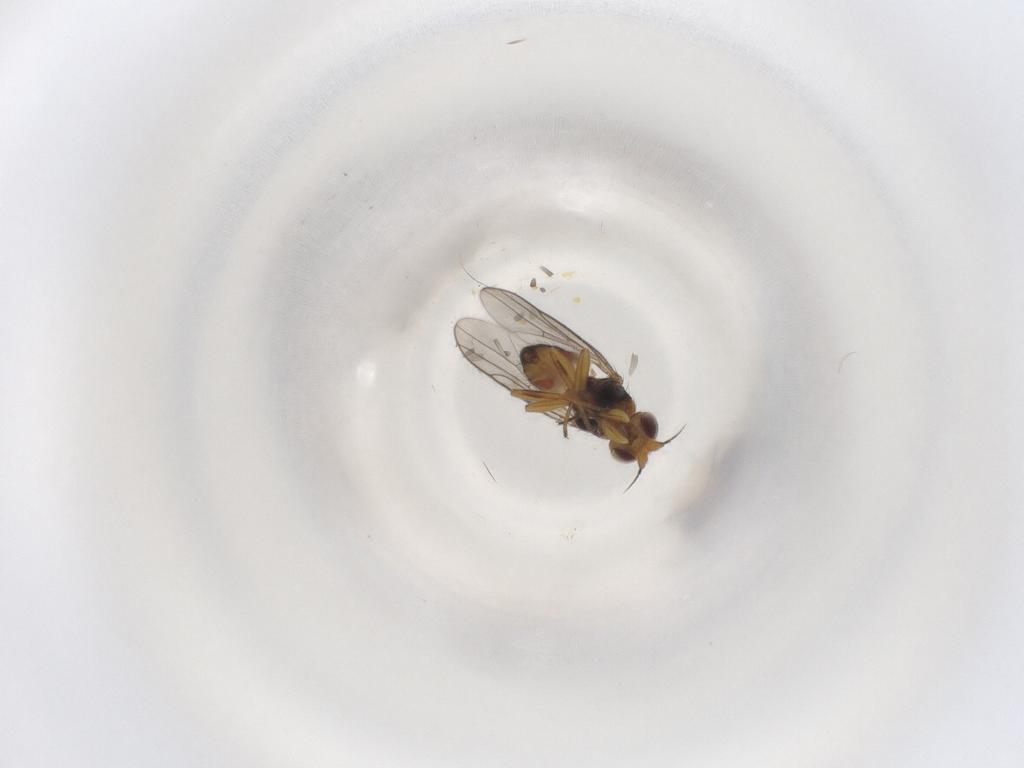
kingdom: Animalia
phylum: Arthropoda
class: Insecta
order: Diptera
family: Chloropidae
